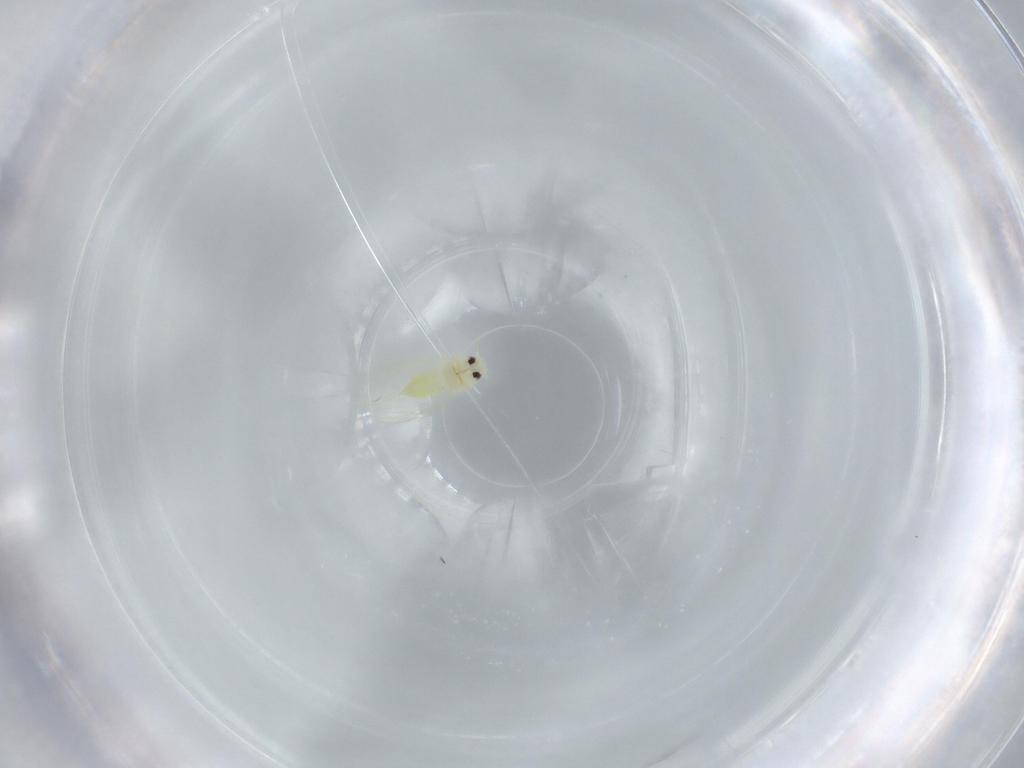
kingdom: Animalia
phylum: Arthropoda
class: Insecta
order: Hemiptera
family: Aleyrodidae
